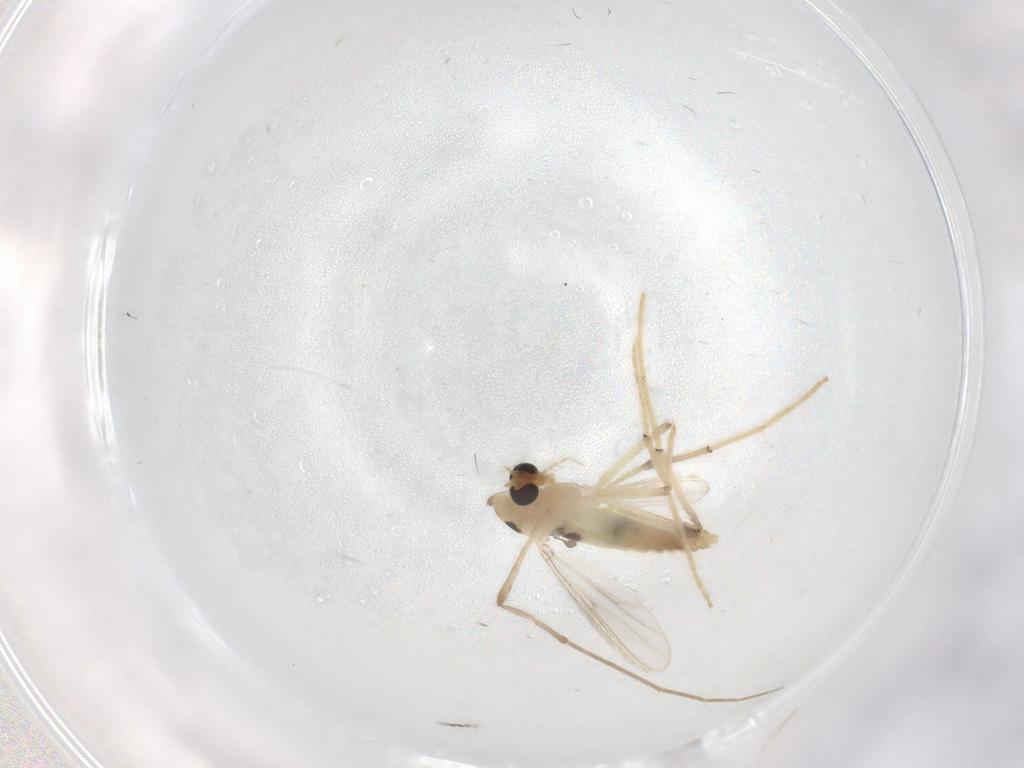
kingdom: Animalia
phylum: Arthropoda
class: Insecta
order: Diptera
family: Chironomidae
